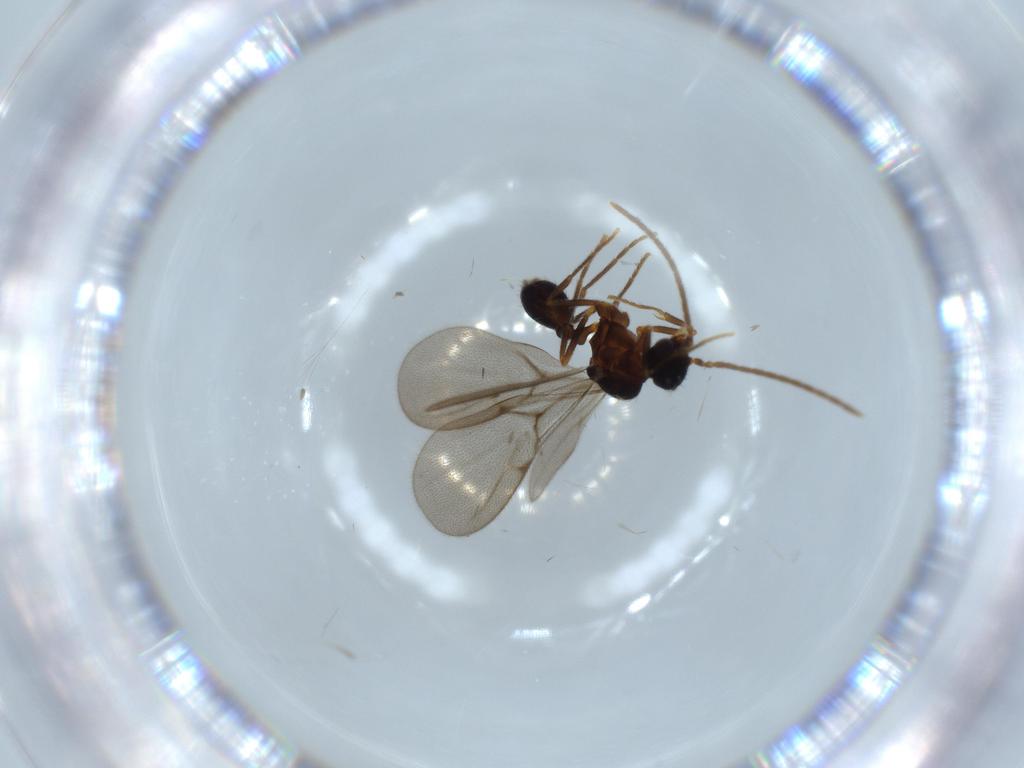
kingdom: Animalia
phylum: Arthropoda
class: Insecta
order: Hymenoptera
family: Formicidae
